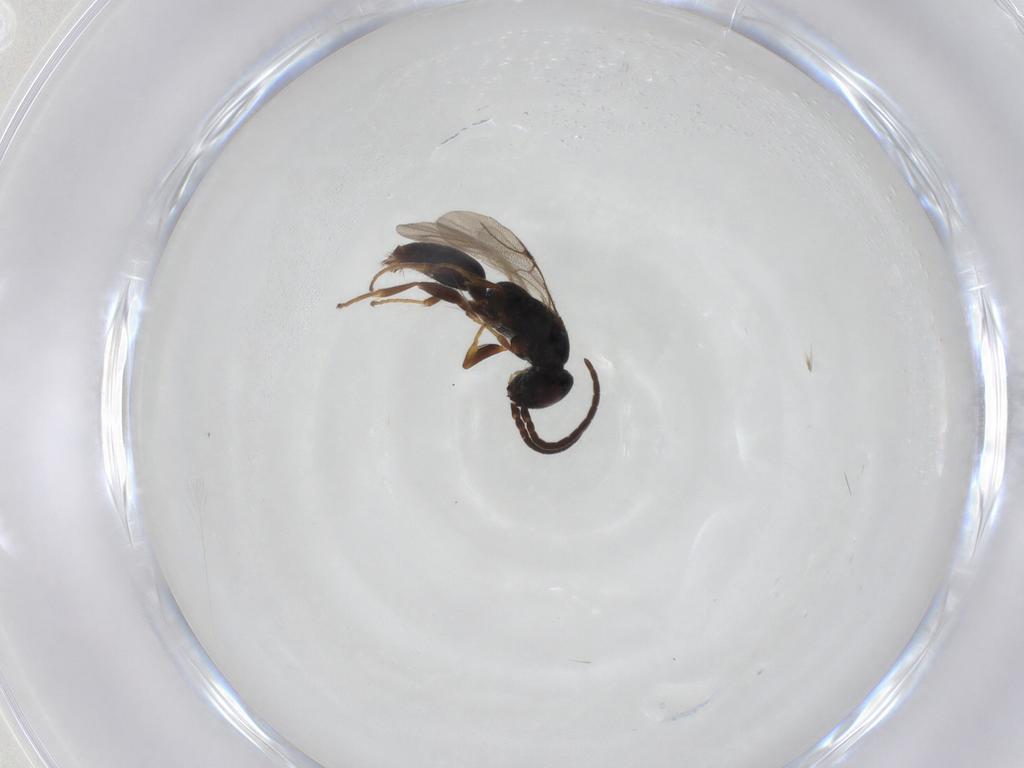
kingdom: Animalia
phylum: Arthropoda
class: Insecta
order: Hymenoptera
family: Bethylidae
